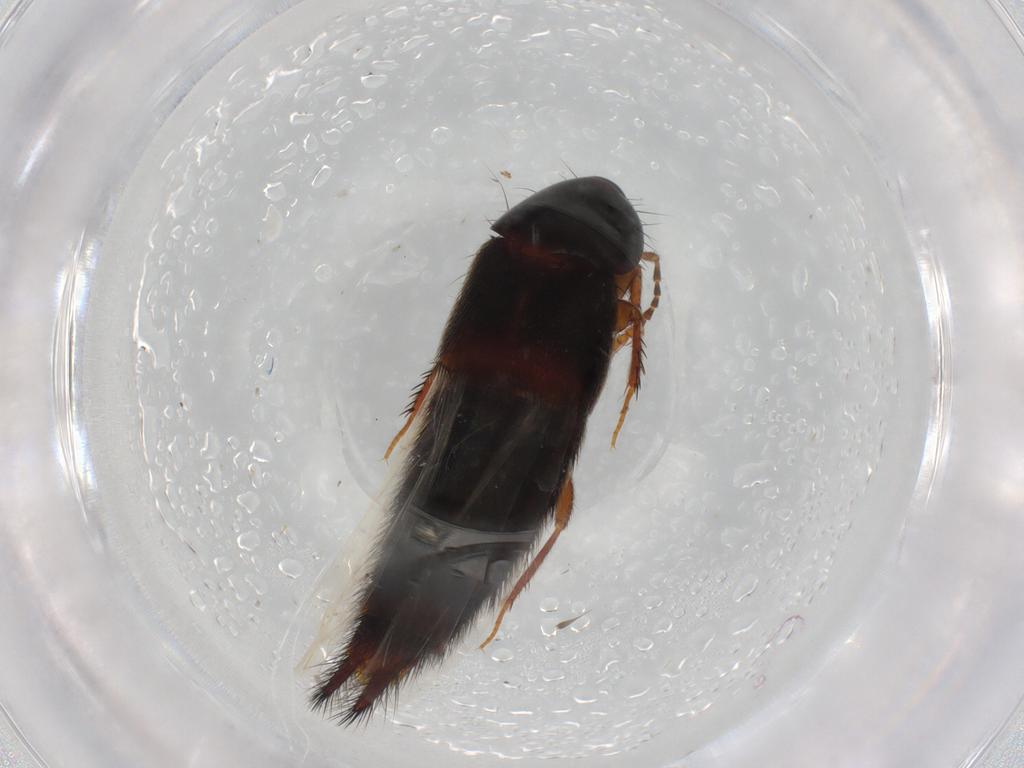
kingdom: Animalia
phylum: Arthropoda
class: Insecta
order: Coleoptera
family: Staphylinidae
